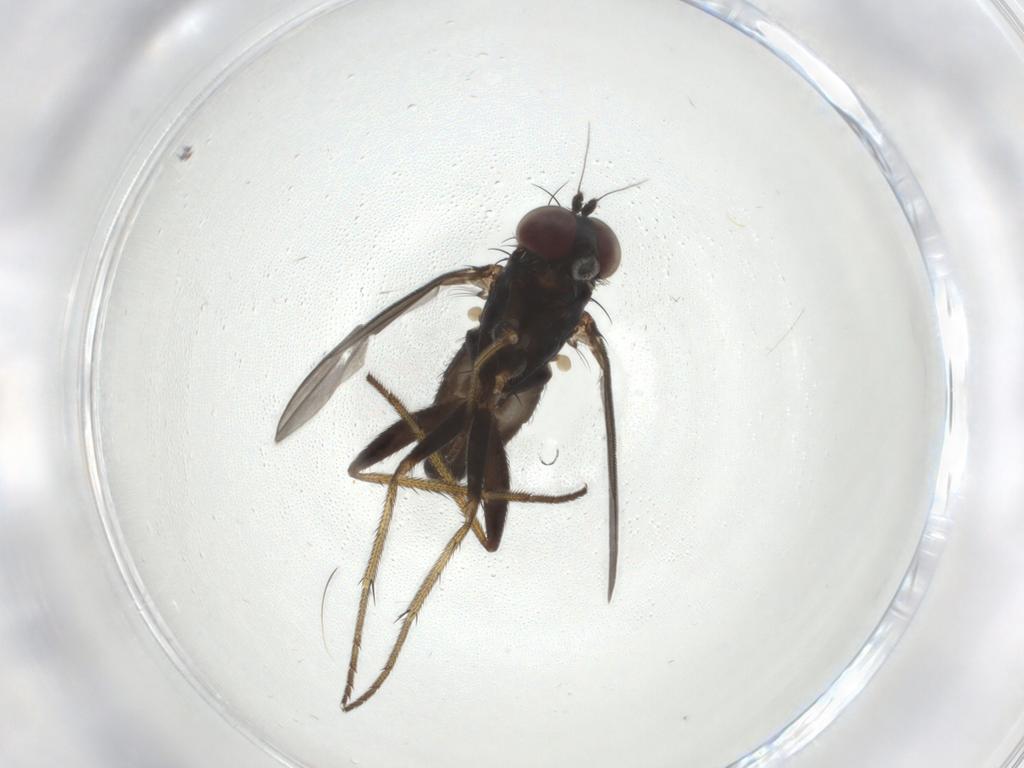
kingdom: Animalia
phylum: Arthropoda
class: Insecta
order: Diptera
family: Dolichopodidae
